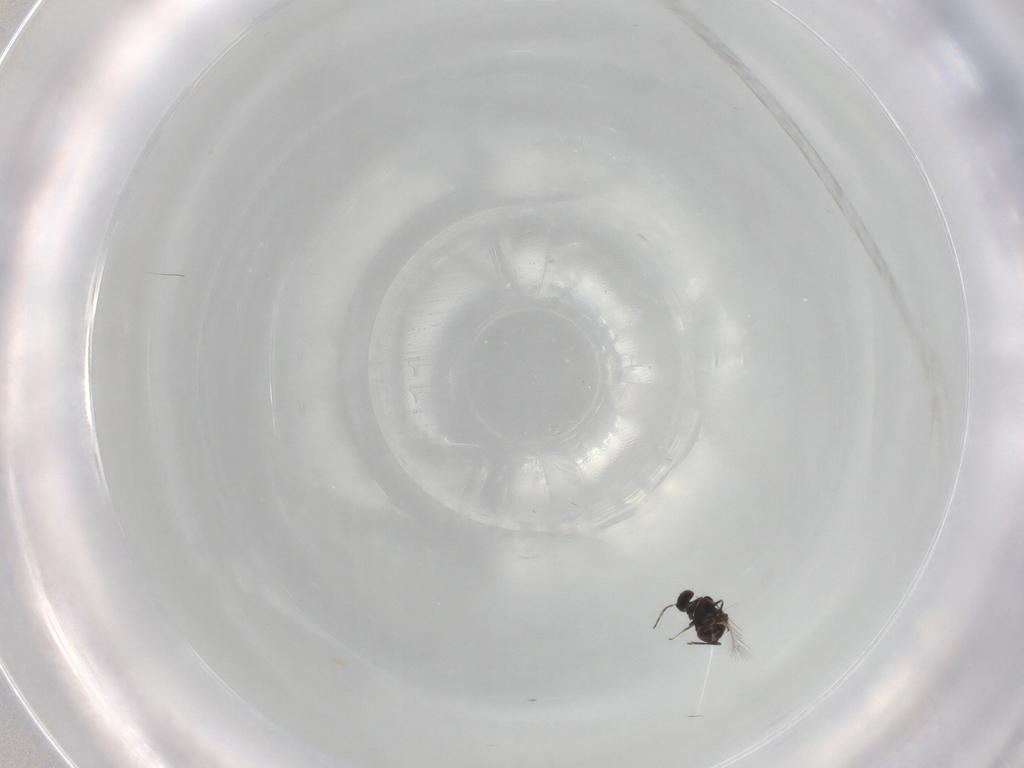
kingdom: Animalia
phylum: Arthropoda
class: Insecta
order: Hymenoptera
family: Mymaridae
